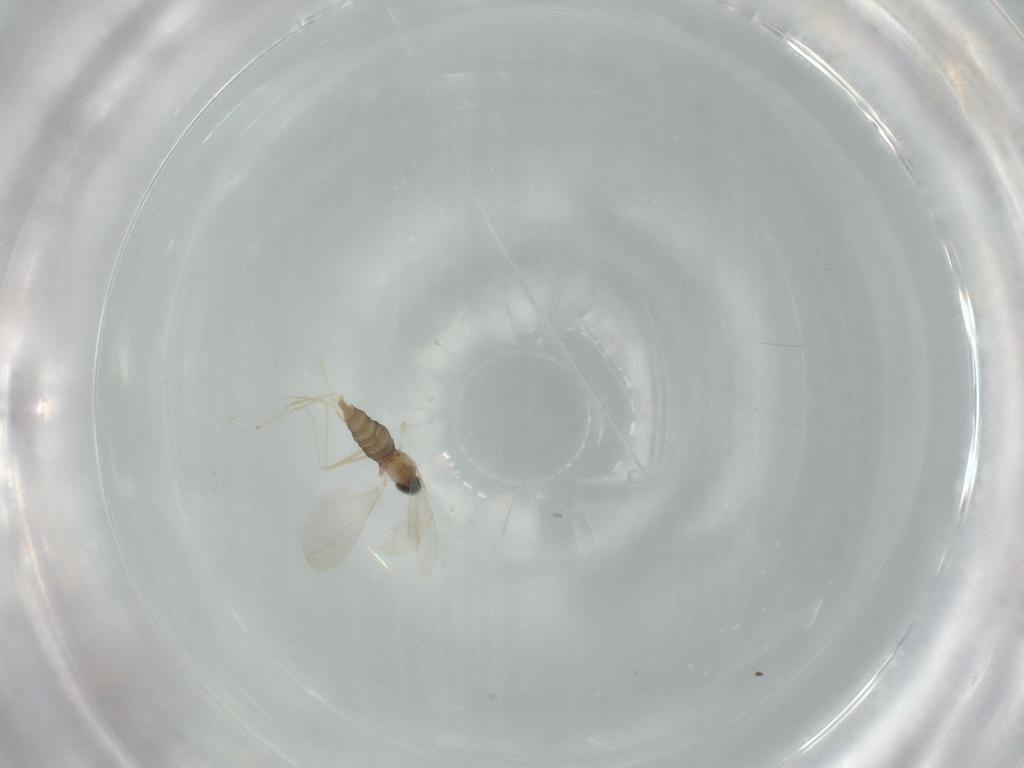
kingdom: Animalia
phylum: Arthropoda
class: Insecta
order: Diptera
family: Cecidomyiidae
